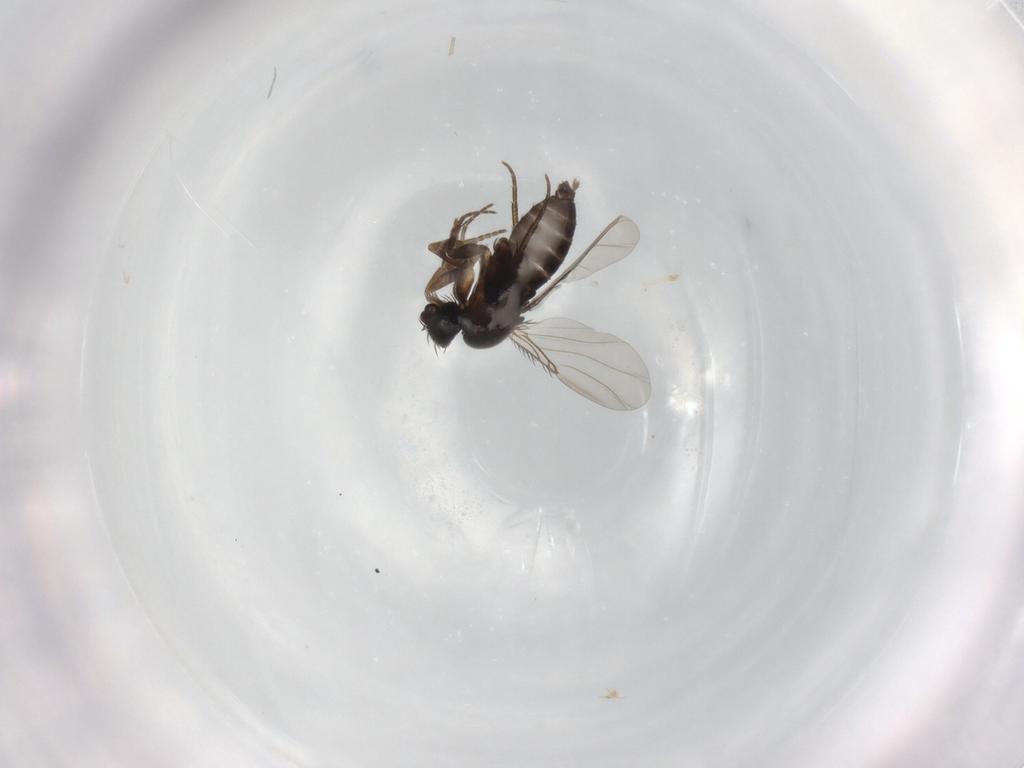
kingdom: Animalia
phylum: Arthropoda
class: Insecta
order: Diptera
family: Phoridae
